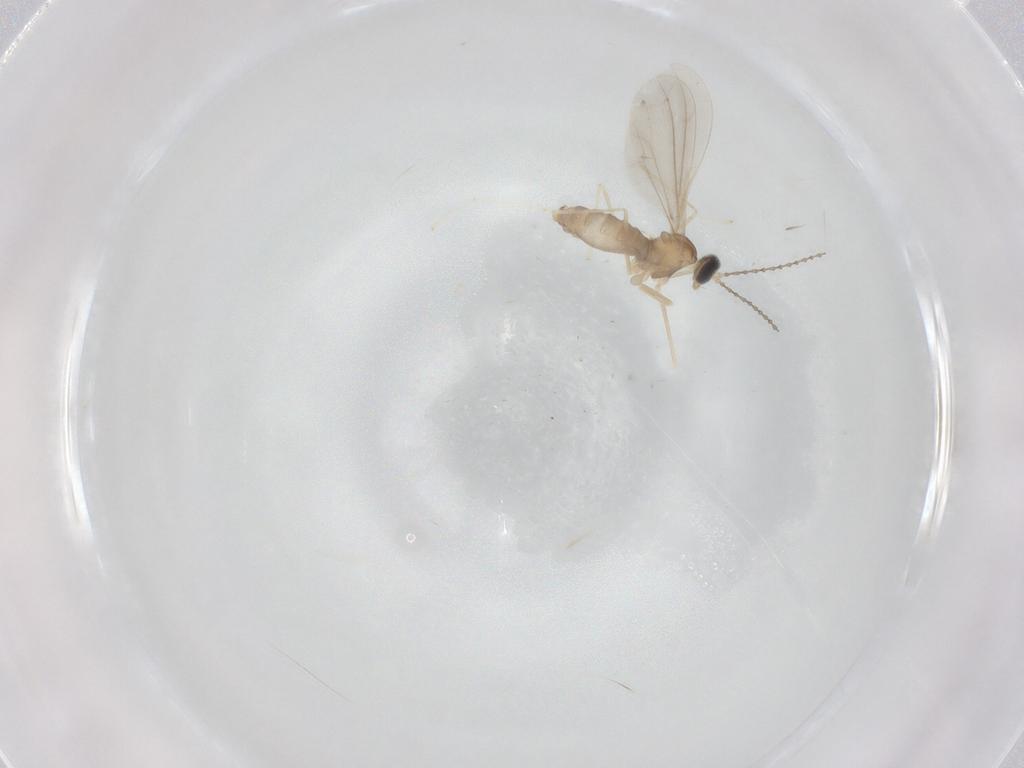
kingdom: Animalia
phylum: Arthropoda
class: Insecta
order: Diptera
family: Cecidomyiidae
